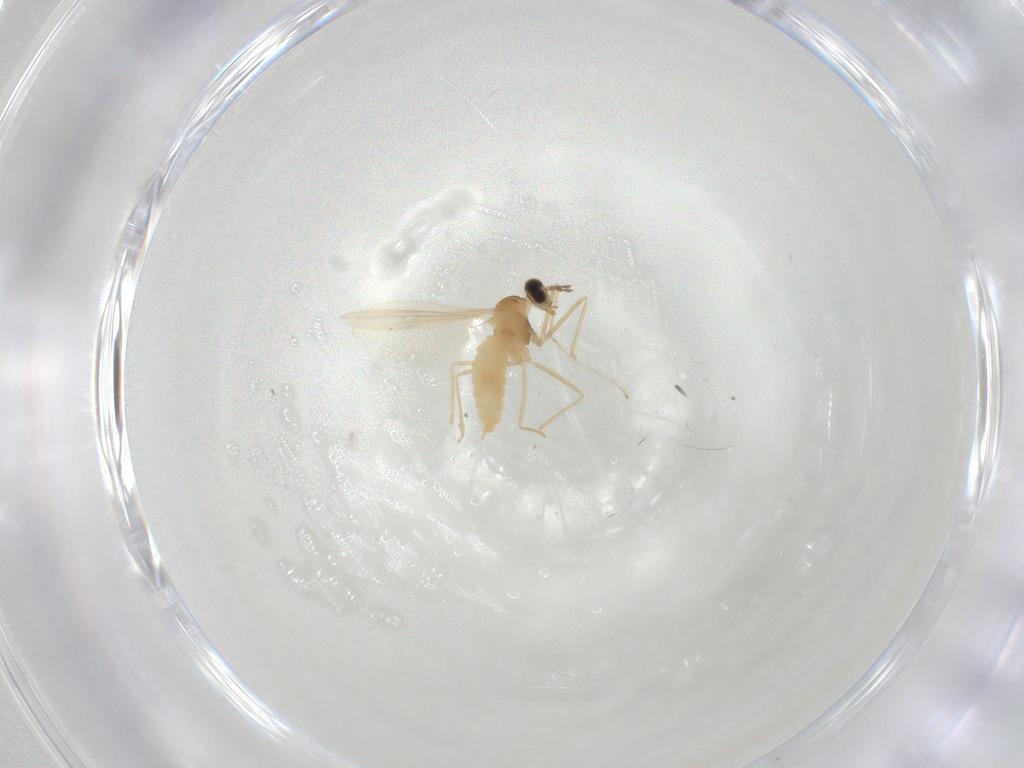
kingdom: Animalia
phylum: Arthropoda
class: Insecta
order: Diptera
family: Cecidomyiidae
